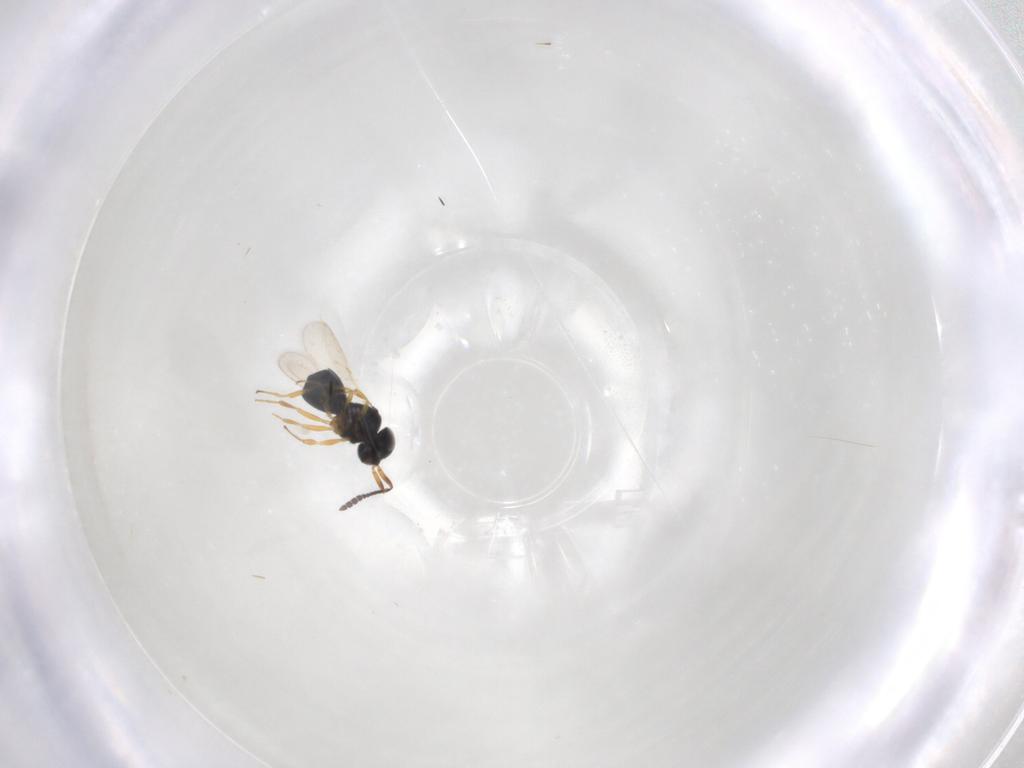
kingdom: Animalia
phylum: Arthropoda
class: Insecta
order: Hymenoptera
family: Scelionidae
